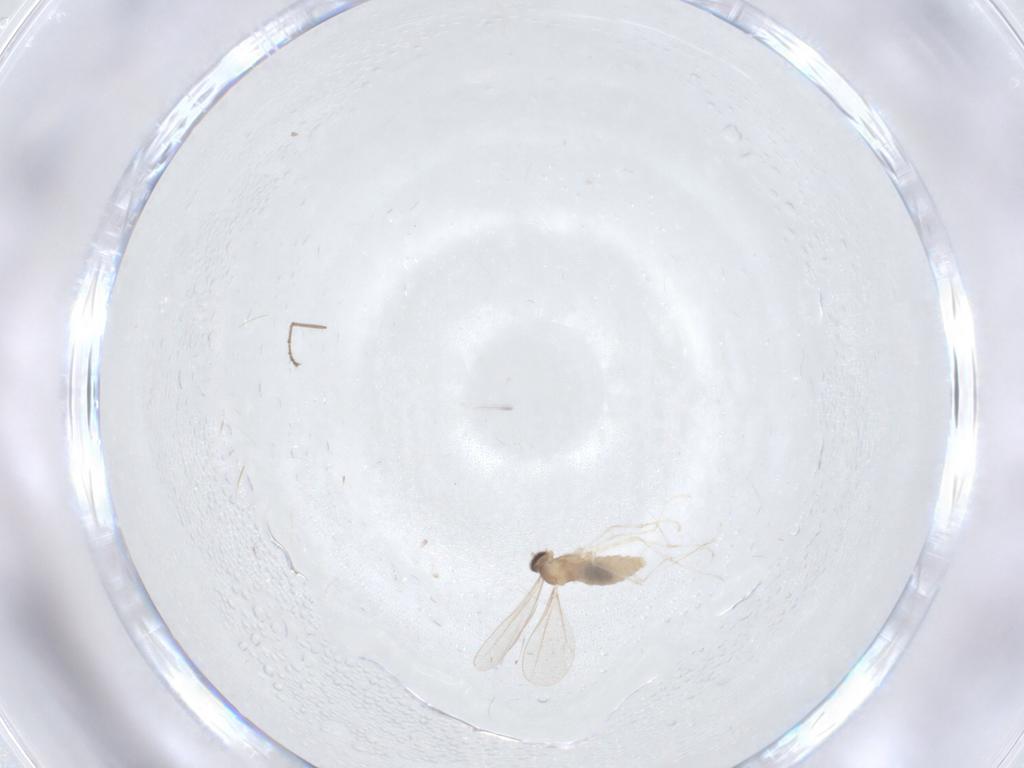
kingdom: Animalia
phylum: Arthropoda
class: Insecta
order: Diptera
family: Cecidomyiidae
